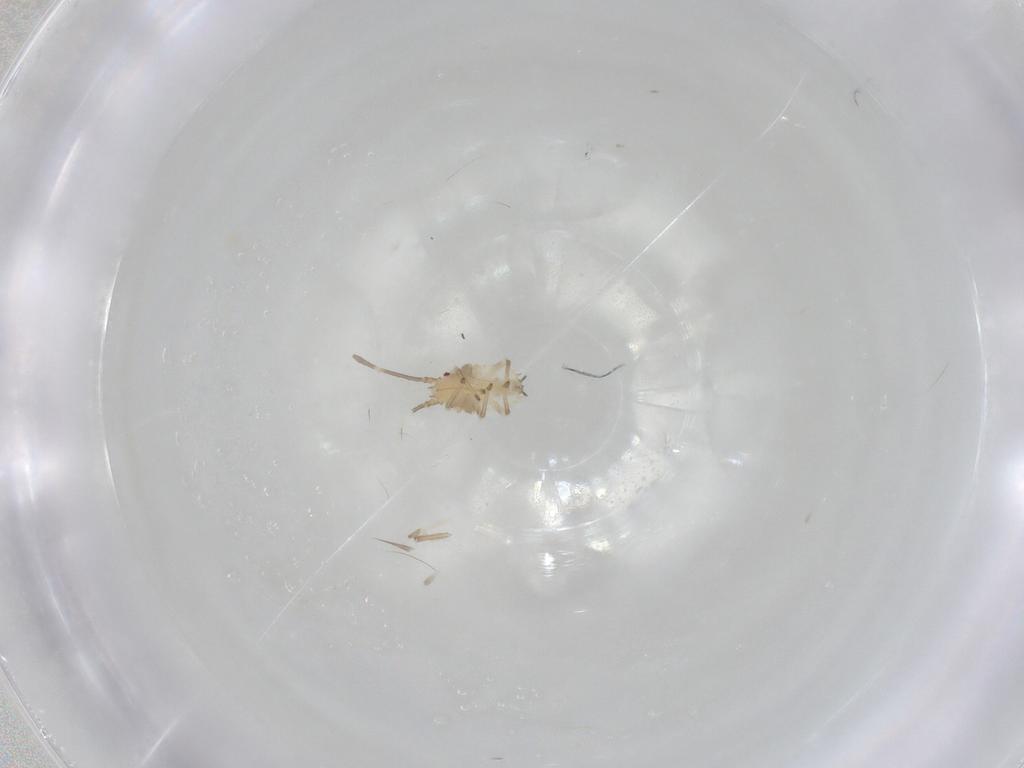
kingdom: Animalia
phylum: Arthropoda
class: Insecta
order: Hemiptera
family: Tingidae
